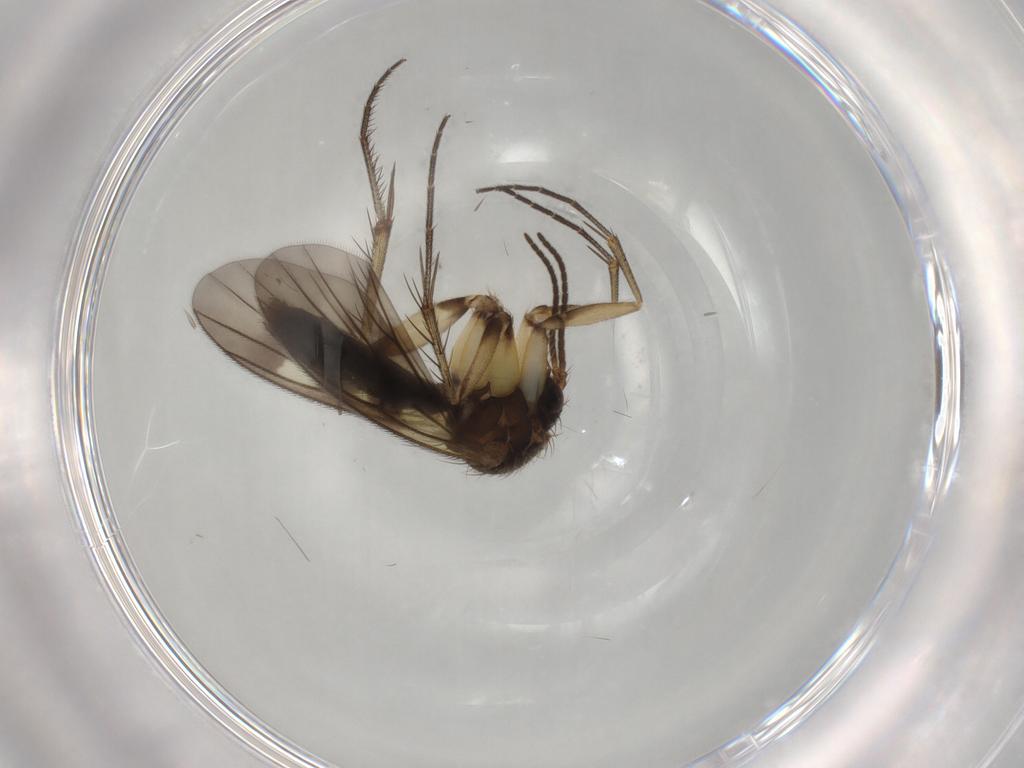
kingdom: Animalia
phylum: Arthropoda
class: Insecta
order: Diptera
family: Mycetophilidae
